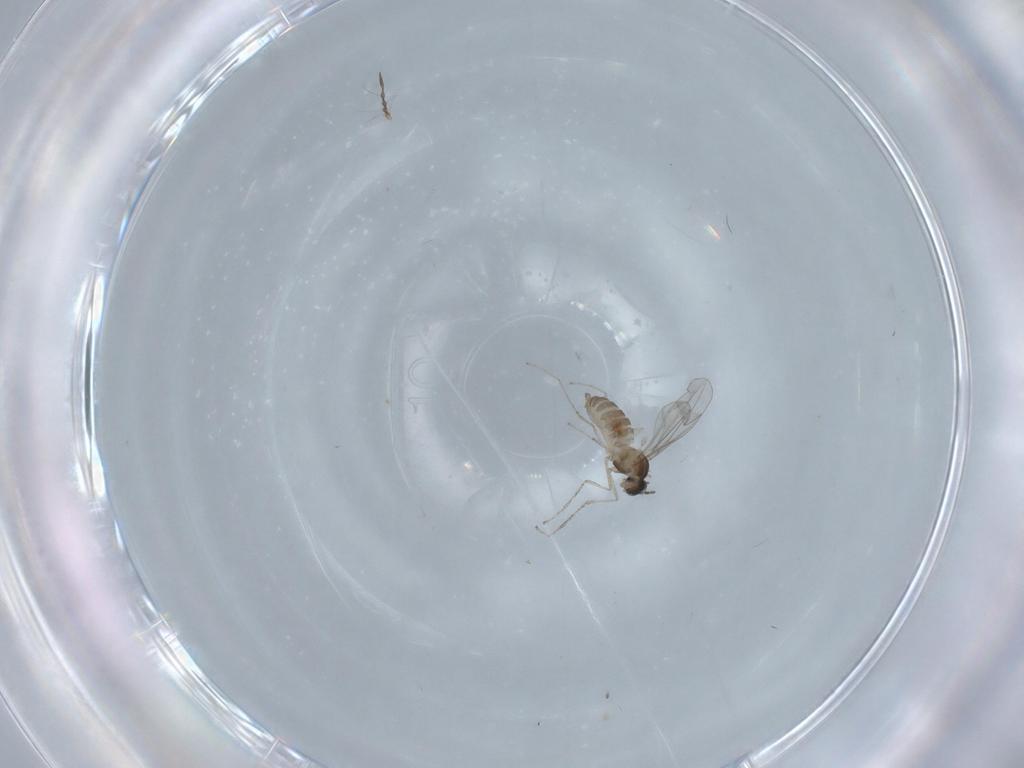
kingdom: Animalia
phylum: Arthropoda
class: Insecta
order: Diptera
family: Cecidomyiidae
